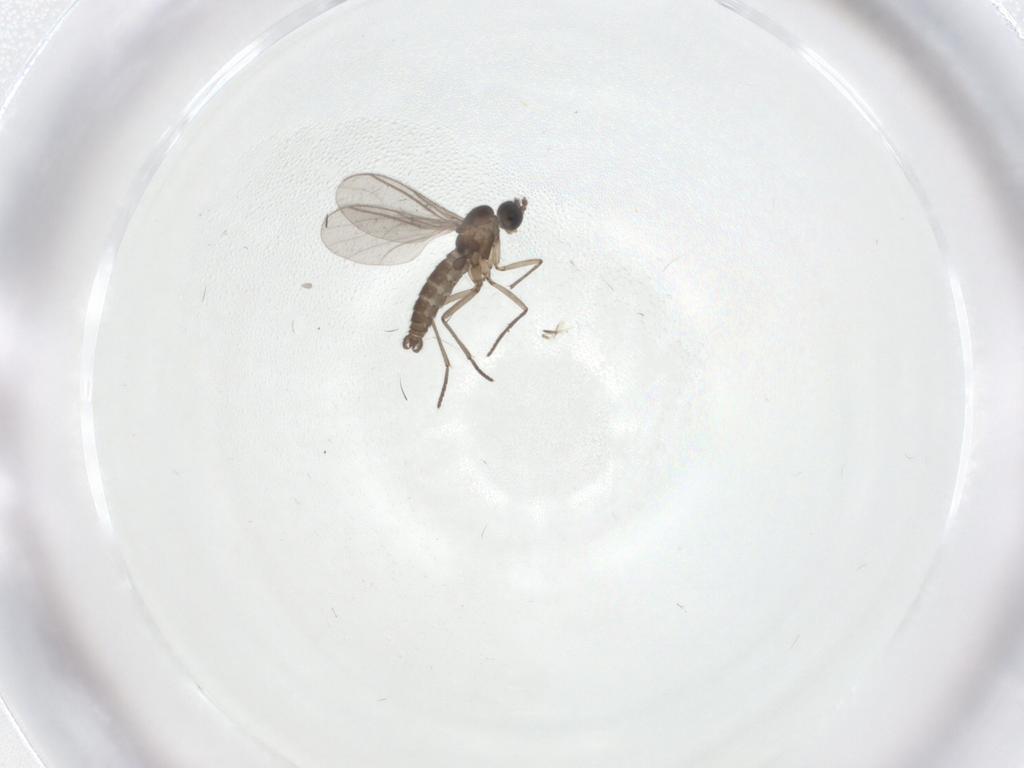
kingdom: Animalia
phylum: Arthropoda
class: Insecta
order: Diptera
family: Sciaridae
